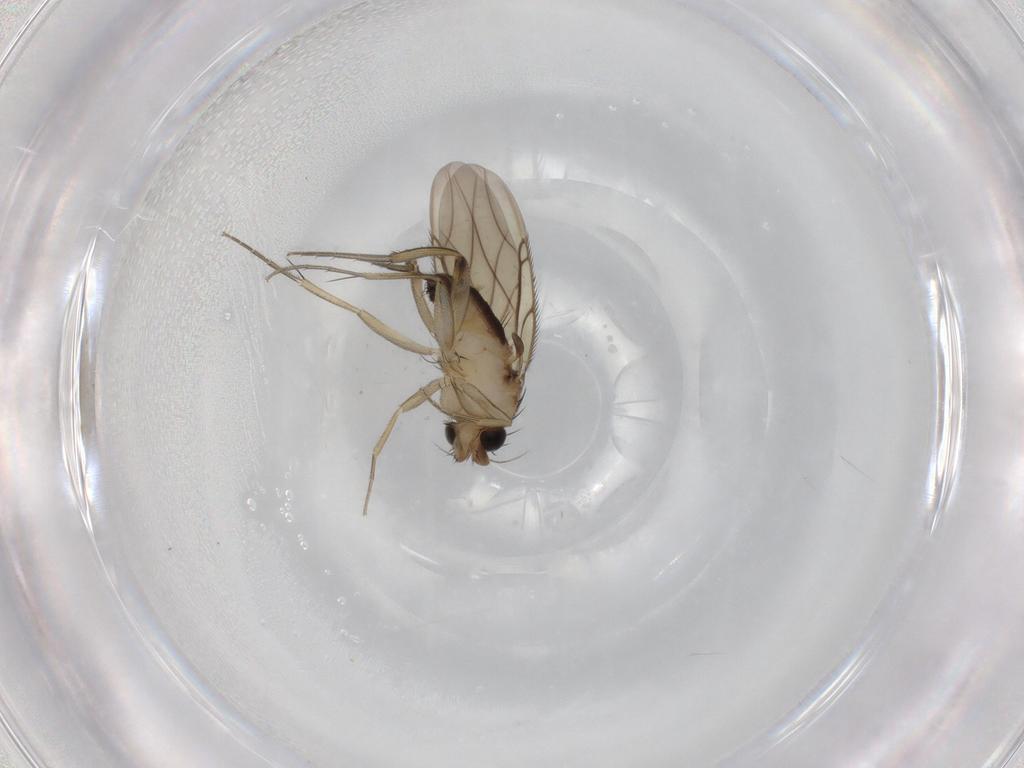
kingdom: Animalia
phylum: Arthropoda
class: Insecta
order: Diptera
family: Phoridae
